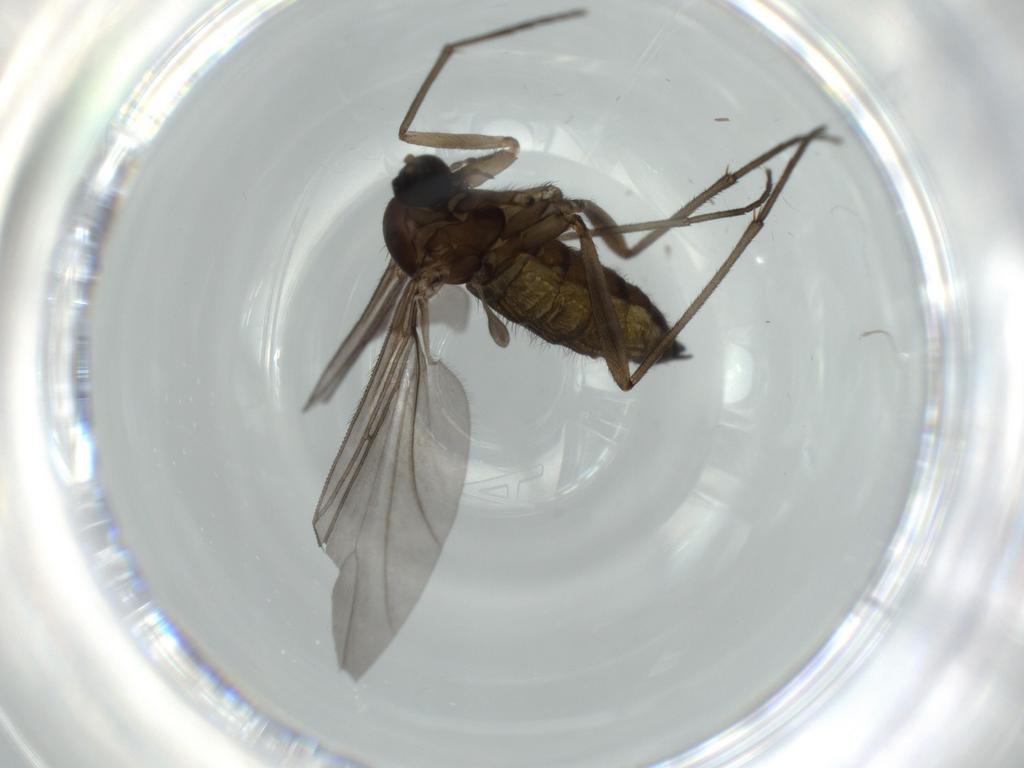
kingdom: Animalia
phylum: Arthropoda
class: Insecta
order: Diptera
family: Sciaridae
